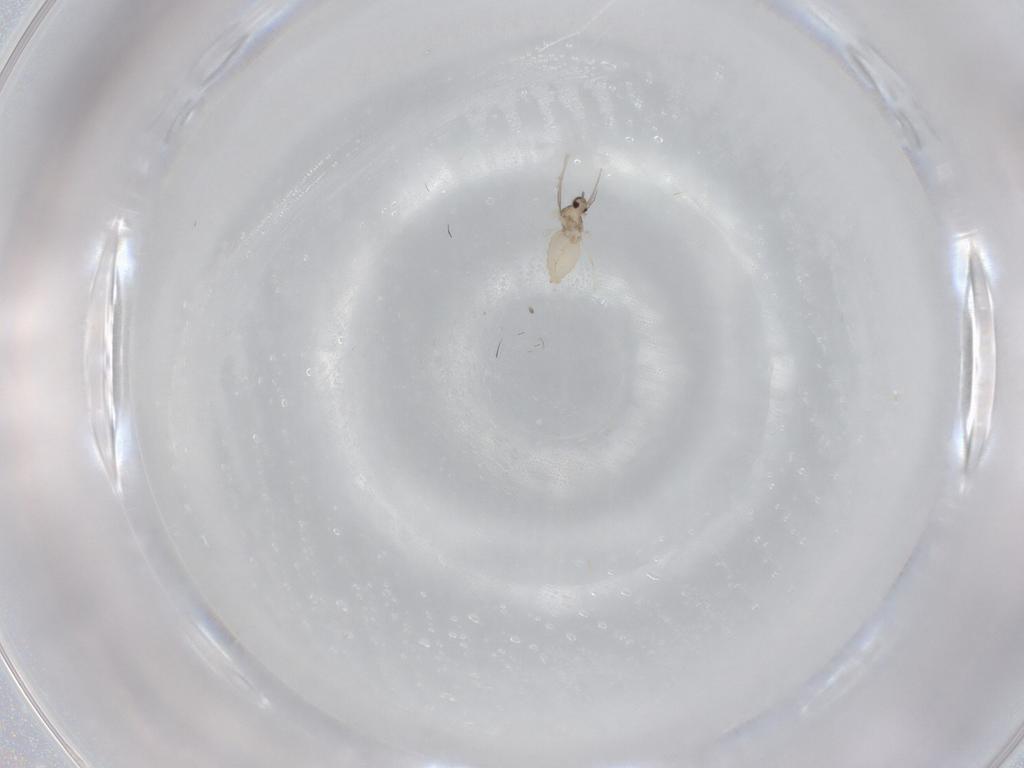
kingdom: Animalia
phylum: Arthropoda
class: Insecta
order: Diptera
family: Cecidomyiidae
